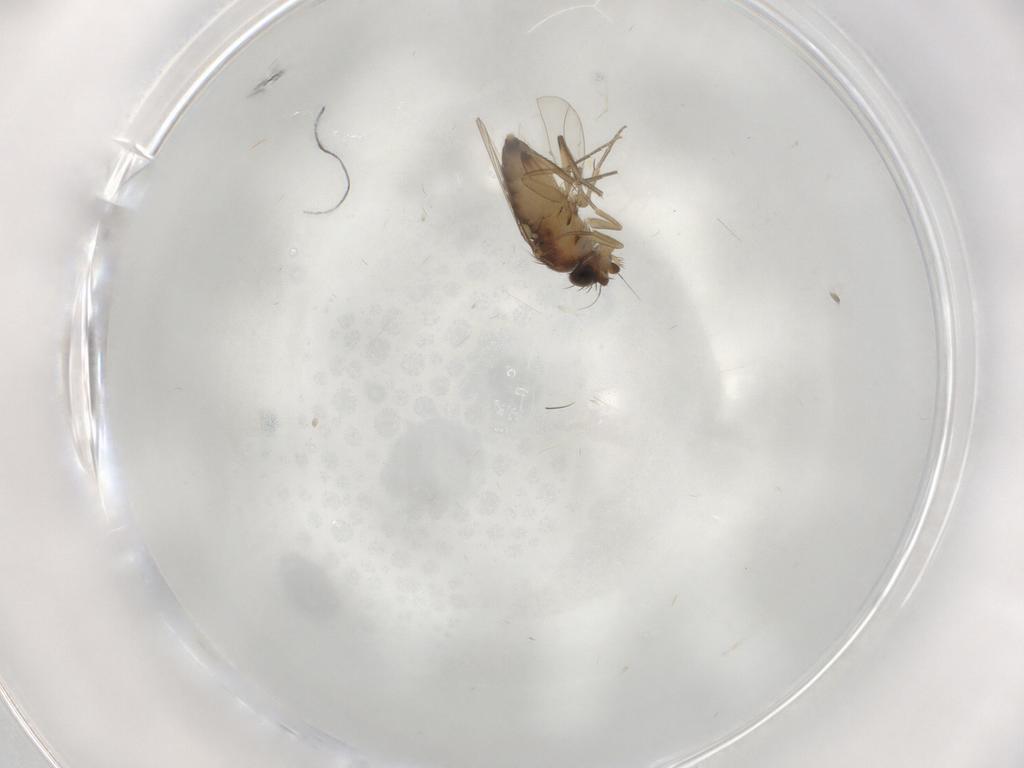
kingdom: Animalia
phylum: Arthropoda
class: Insecta
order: Diptera
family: Phoridae
